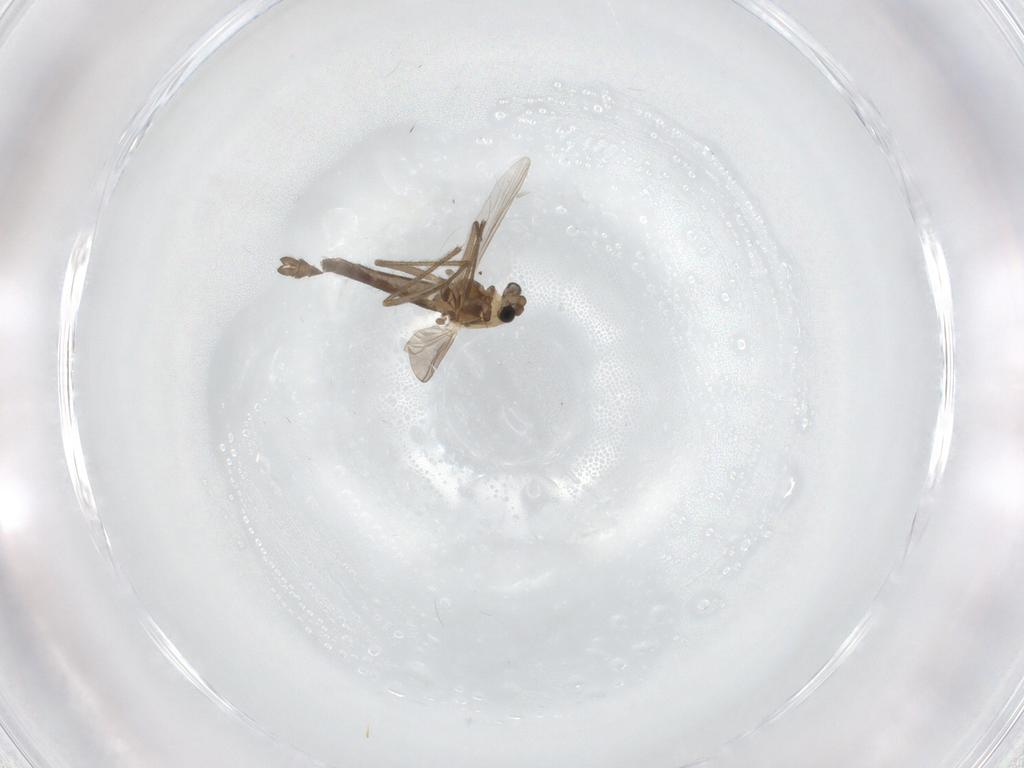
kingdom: Animalia
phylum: Arthropoda
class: Insecta
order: Diptera
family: Chironomidae
